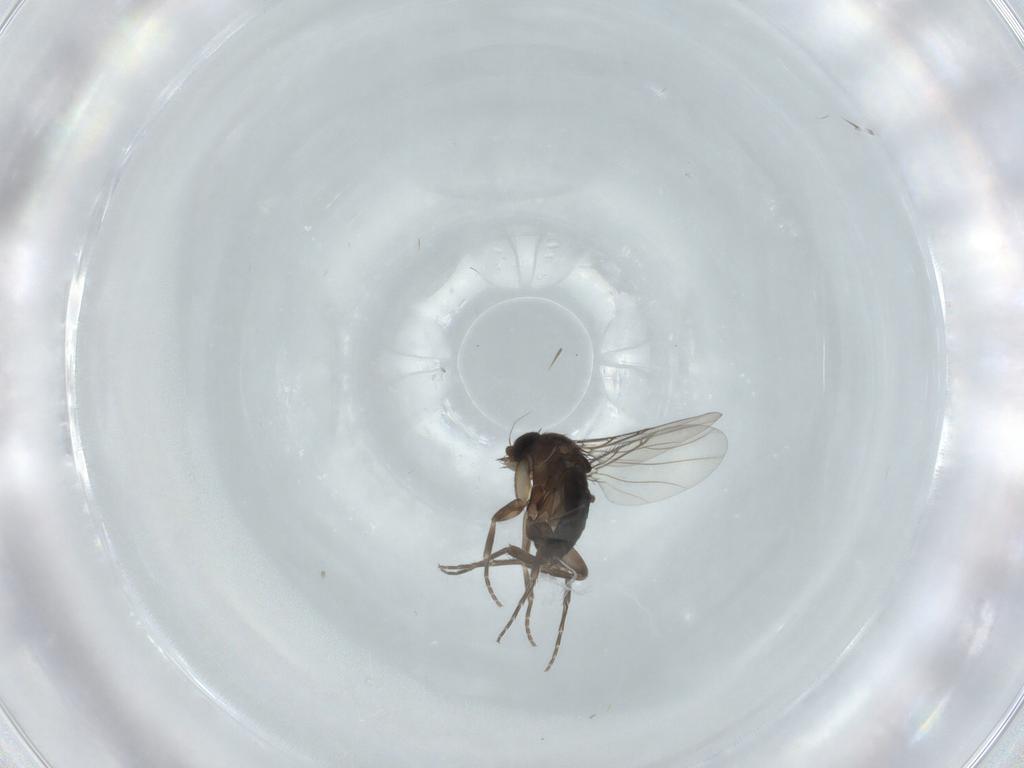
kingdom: Animalia
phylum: Arthropoda
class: Insecta
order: Diptera
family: Phoridae
